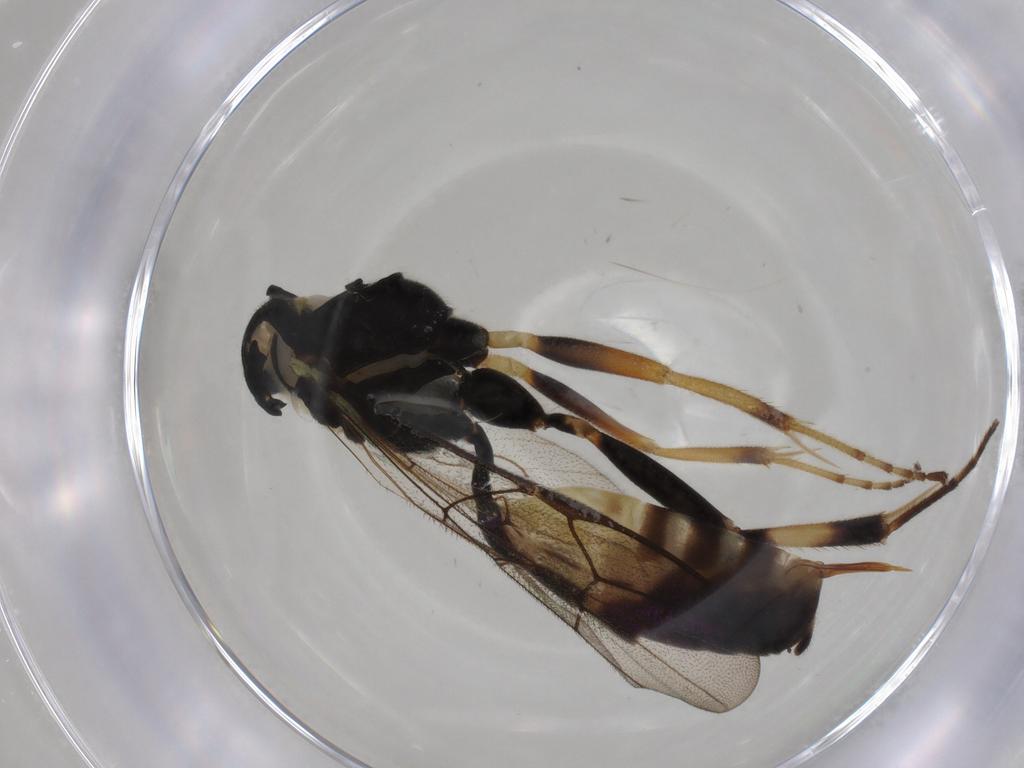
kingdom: Animalia
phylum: Arthropoda
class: Insecta
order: Hymenoptera
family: Ichneumonidae
